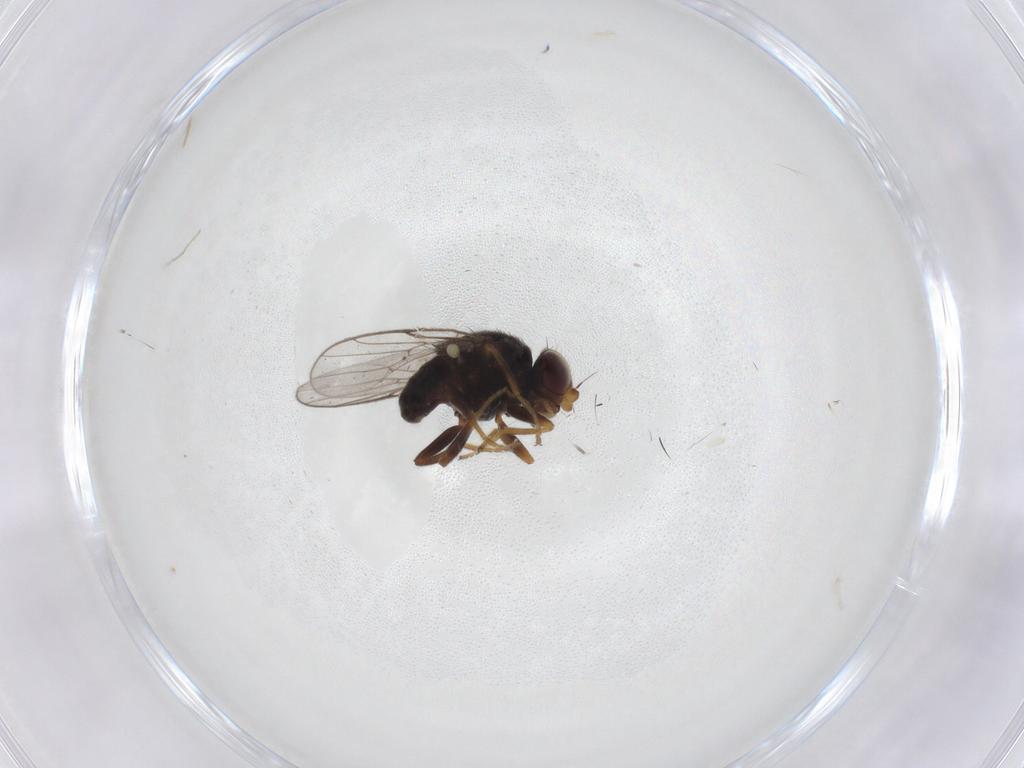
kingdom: Animalia
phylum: Arthropoda
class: Insecta
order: Diptera
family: Chloropidae
